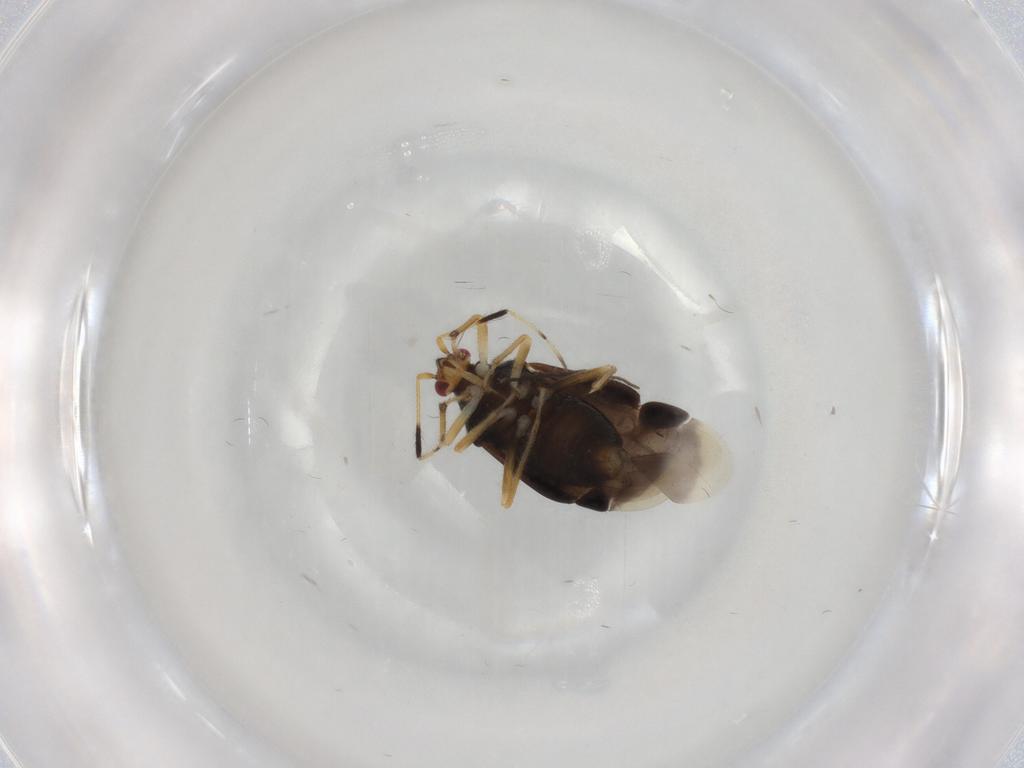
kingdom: Animalia
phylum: Arthropoda
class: Insecta
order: Hemiptera
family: Miridae
